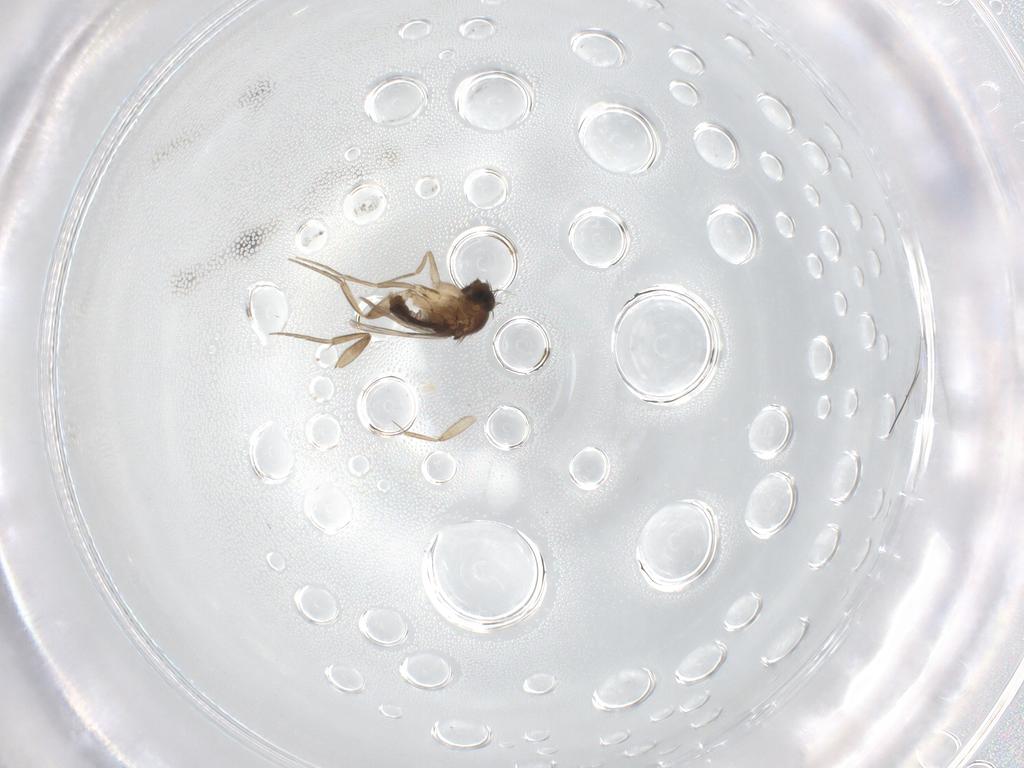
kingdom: Animalia
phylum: Arthropoda
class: Insecta
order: Diptera
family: Phoridae
